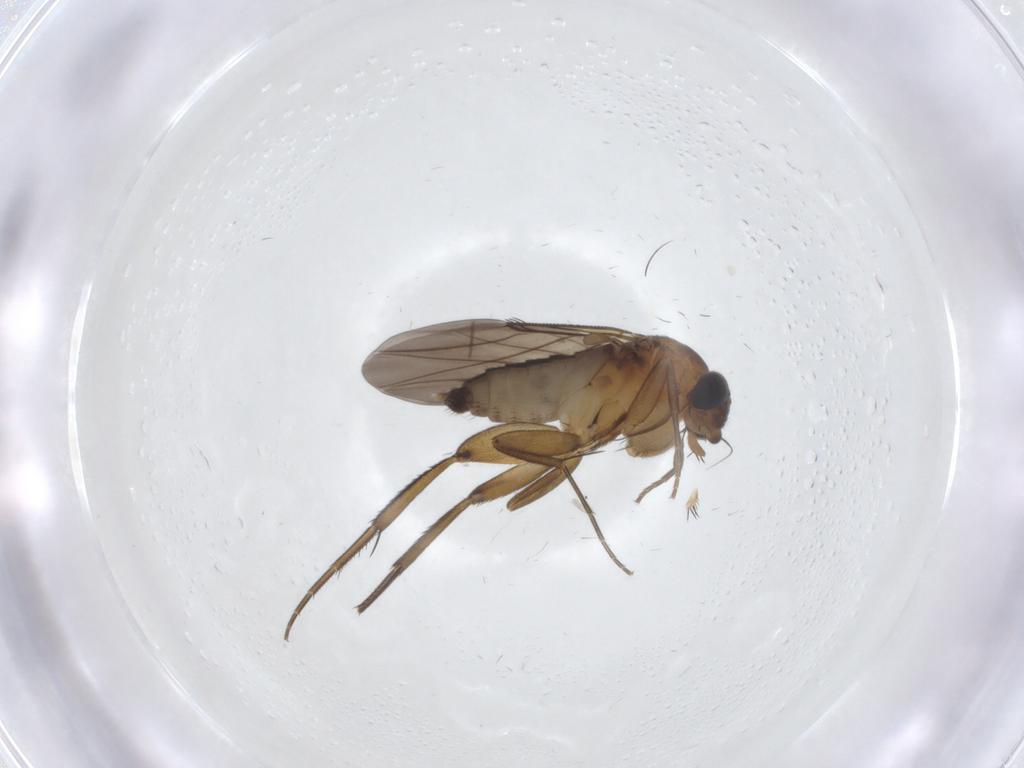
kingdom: Animalia
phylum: Arthropoda
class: Insecta
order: Diptera
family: Phoridae
